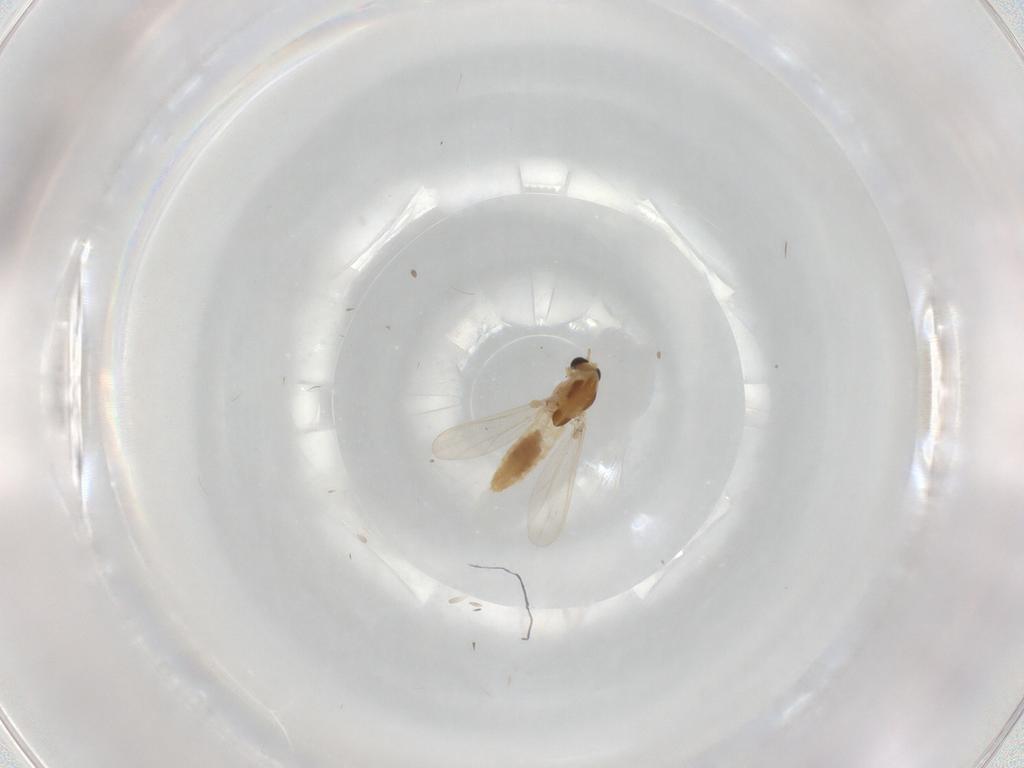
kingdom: Animalia
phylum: Arthropoda
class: Insecta
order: Diptera
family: Chironomidae
